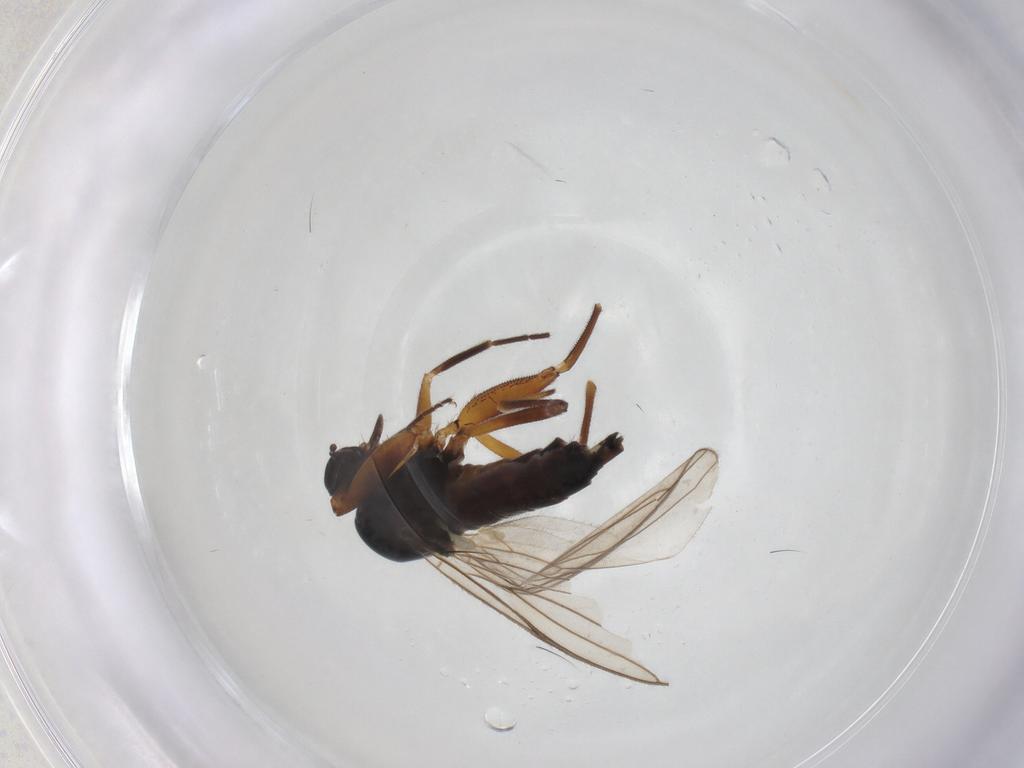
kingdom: Animalia
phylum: Arthropoda
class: Insecta
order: Diptera
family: Hybotidae
